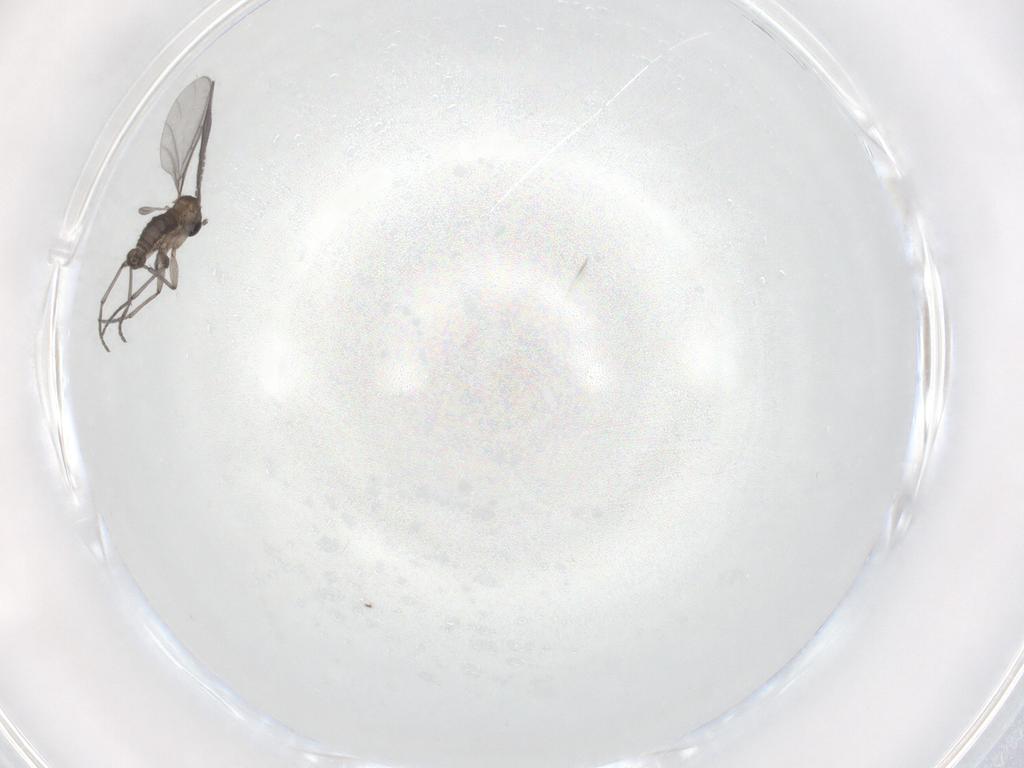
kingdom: Animalia
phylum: Arthropoda
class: Insecta
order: Diptera
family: Sciaridae
